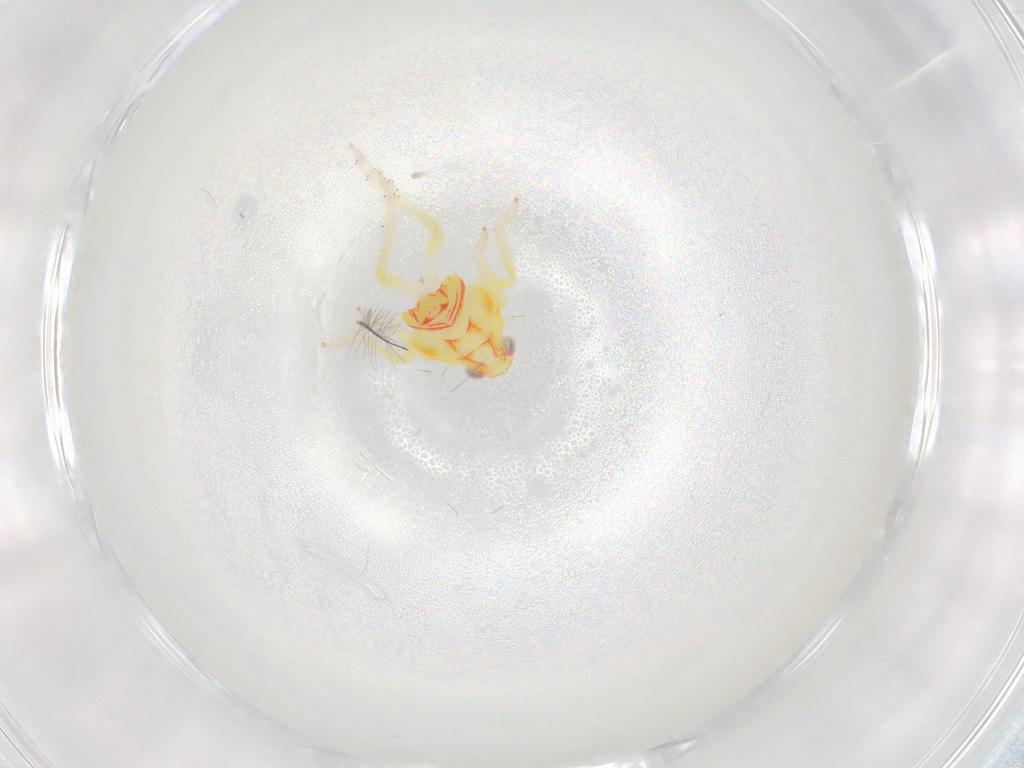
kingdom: Animalia
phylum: Arthropoda
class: Insecta
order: Hemiptera
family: Tropiduchidae
